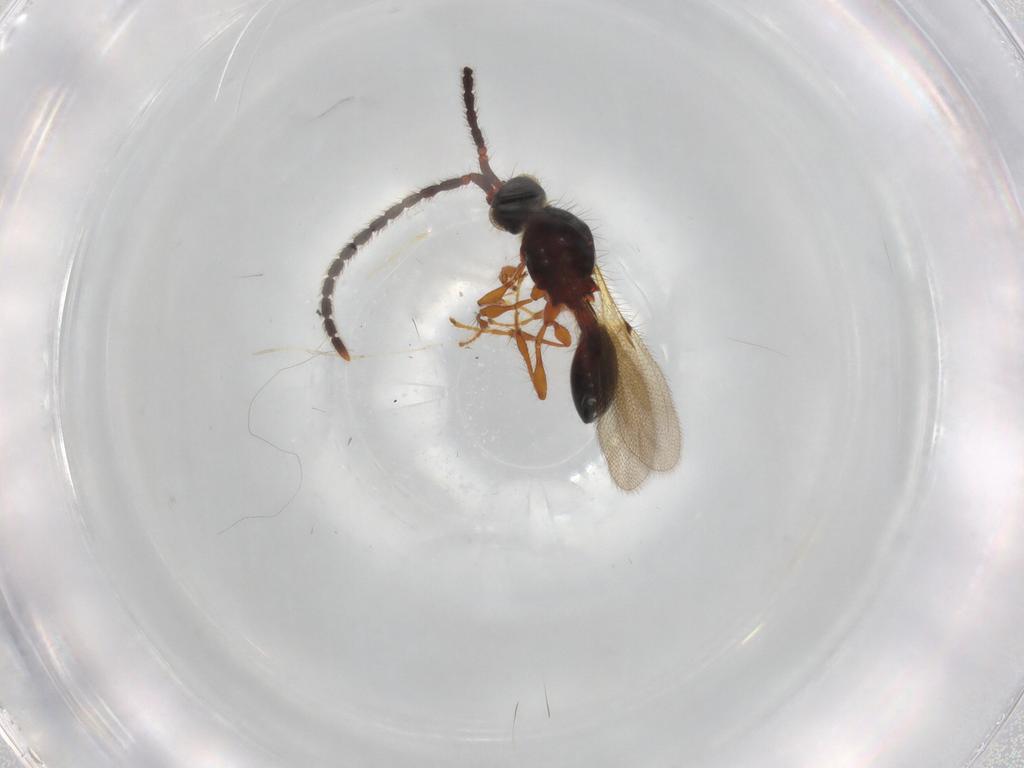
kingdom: Animalia
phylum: Arthropoda
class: Insecta
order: Hymenoptera
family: Diapriidae
